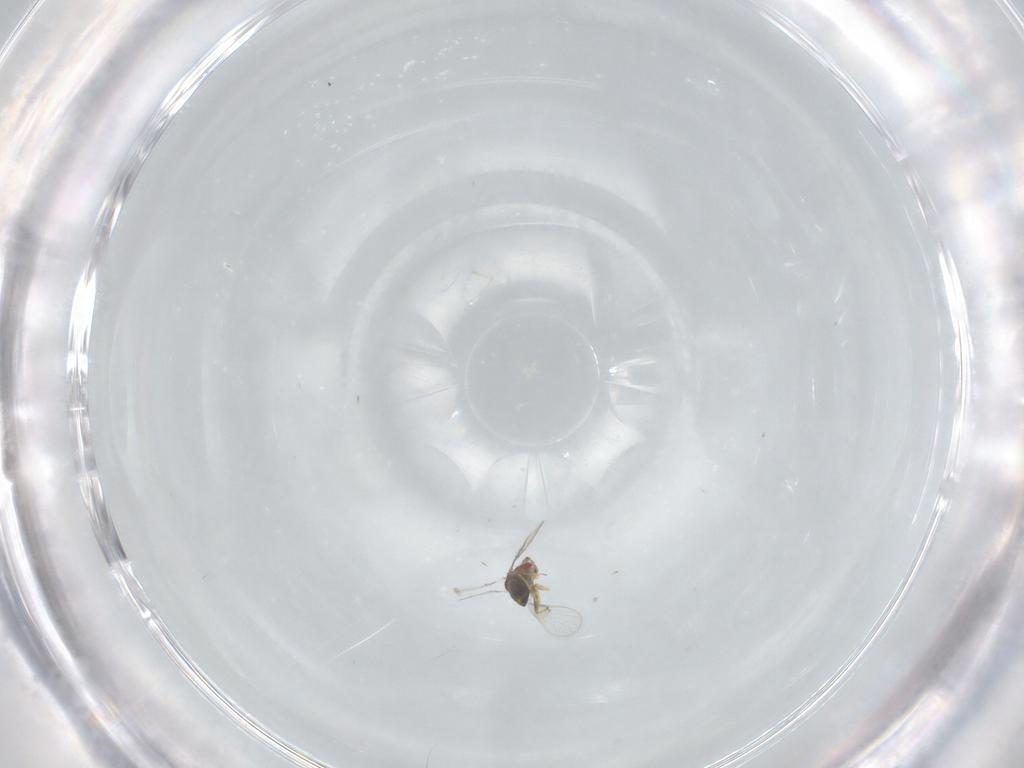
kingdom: Animalia
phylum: Arthropoda
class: Insecta
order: Hymenoptera
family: Trichogrammatidae
